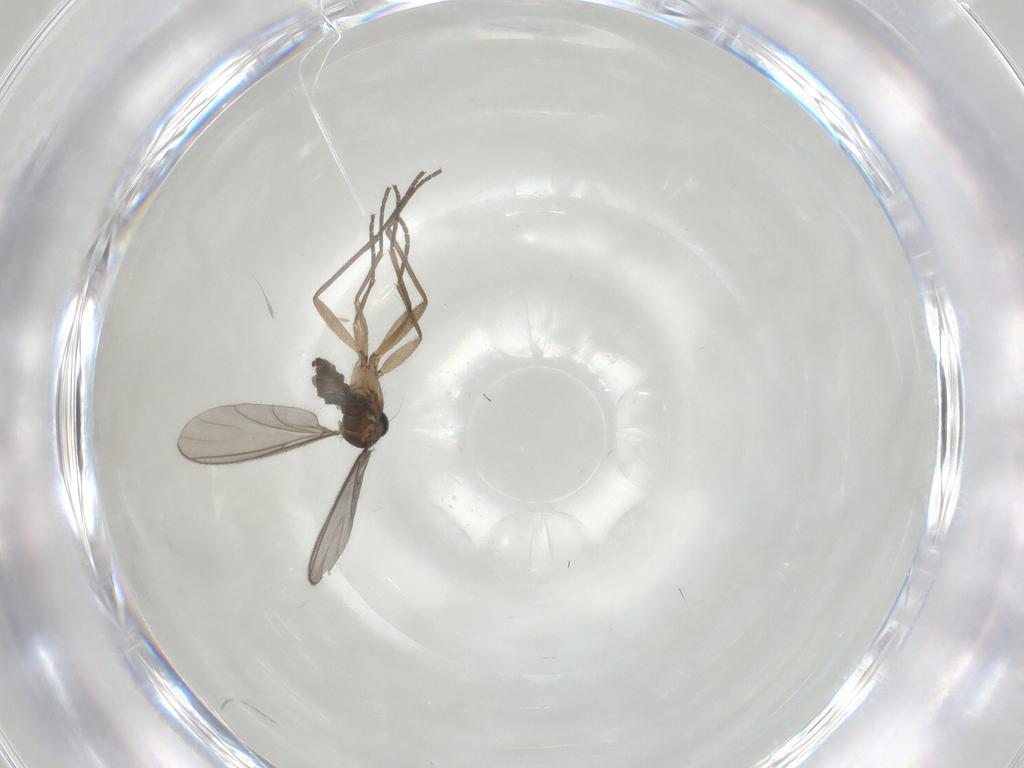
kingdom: Animalia
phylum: Arthropoda
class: Insecta
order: Diptera
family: Sciaridae
